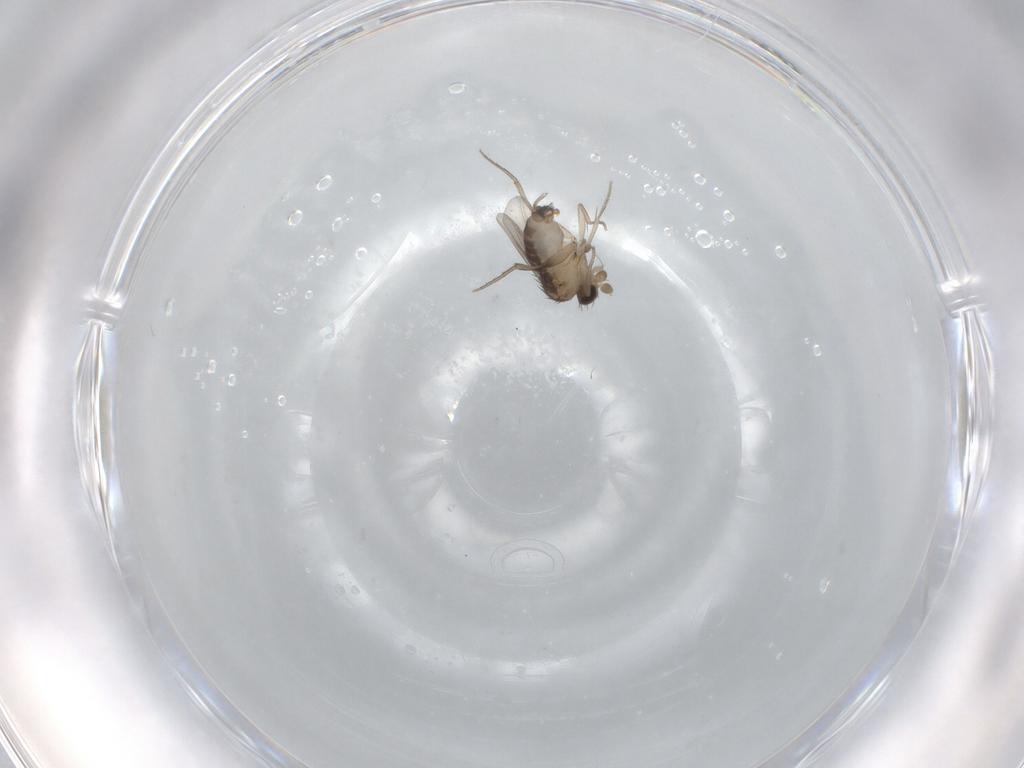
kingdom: Animalia
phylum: Arthropoda
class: Insecta
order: Diptera
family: Phoridae
